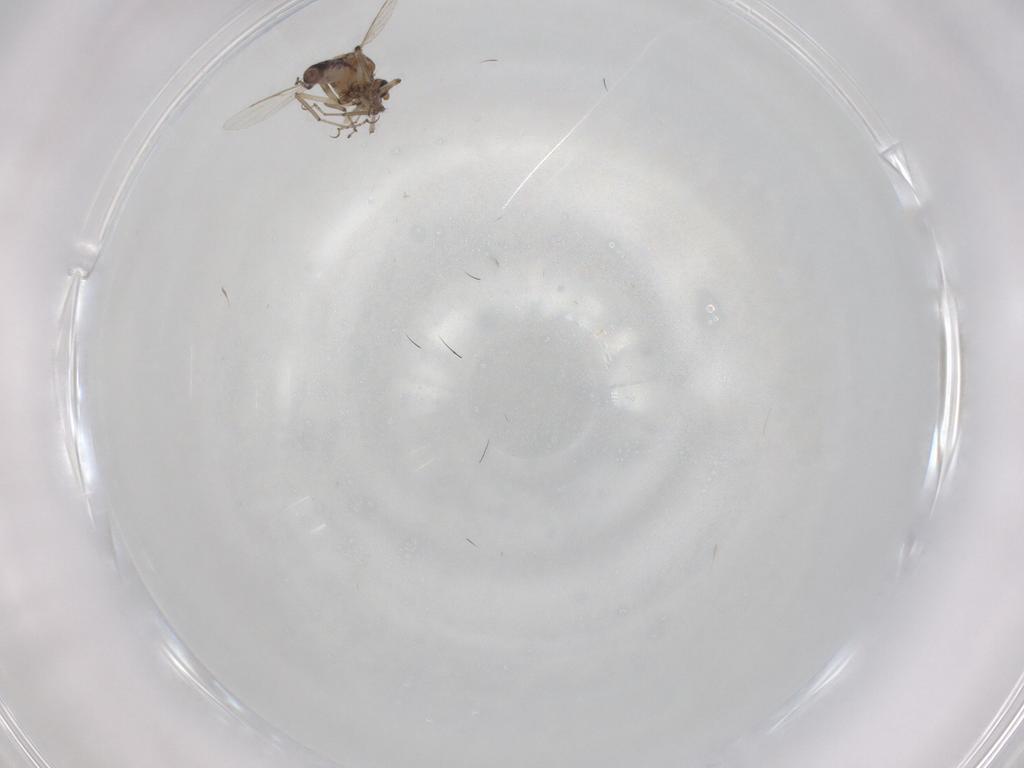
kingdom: Animalia
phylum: Arthropoda
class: Insecta
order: Diptera
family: Ceratopogonidae
